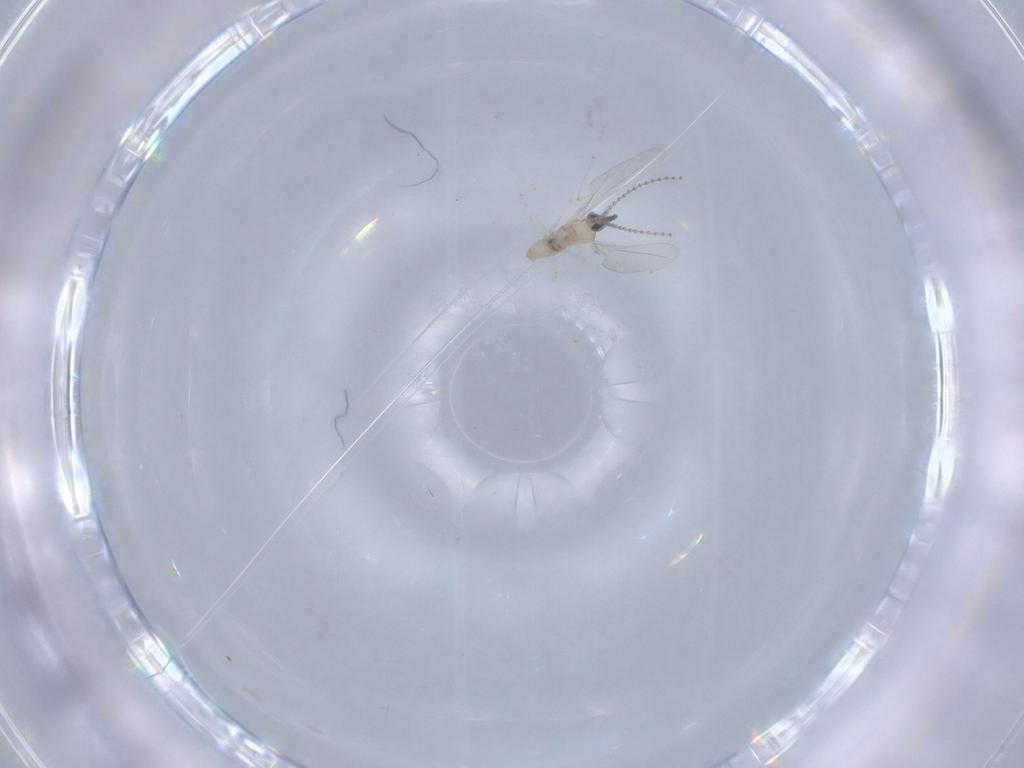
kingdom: Animalia
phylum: Arthropoda
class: Insecta
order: Diptera
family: Cecidomyiidae
